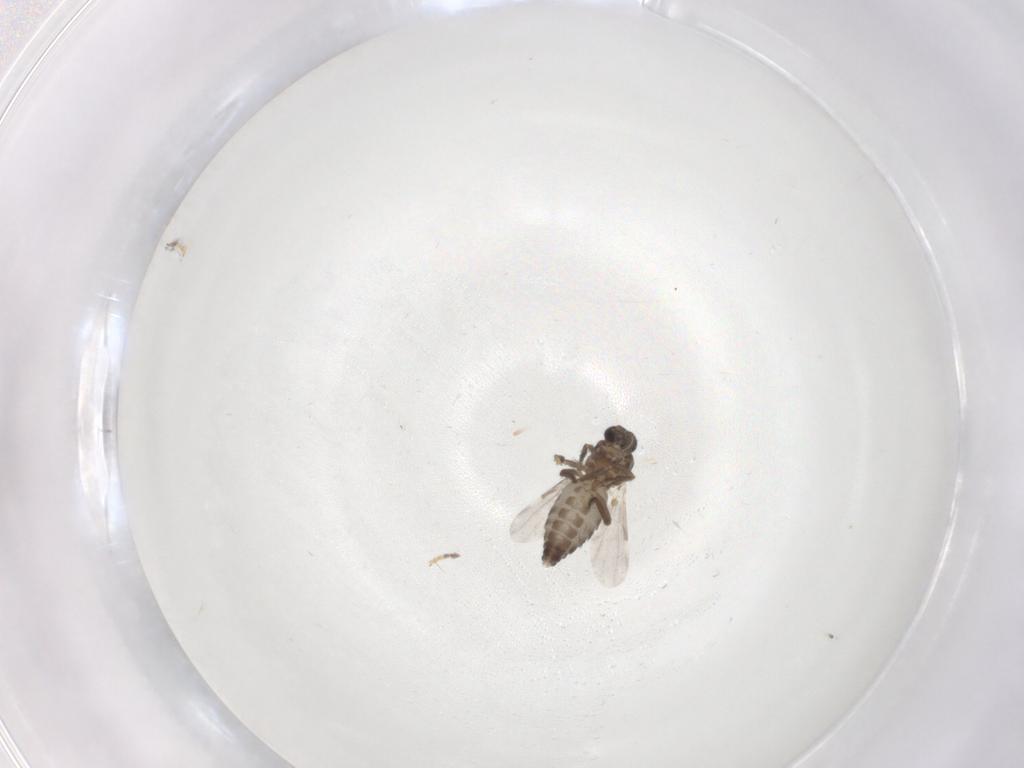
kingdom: Animalia
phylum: Arthropoda
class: Insecta
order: Diptera
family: Ceratopogonidae
